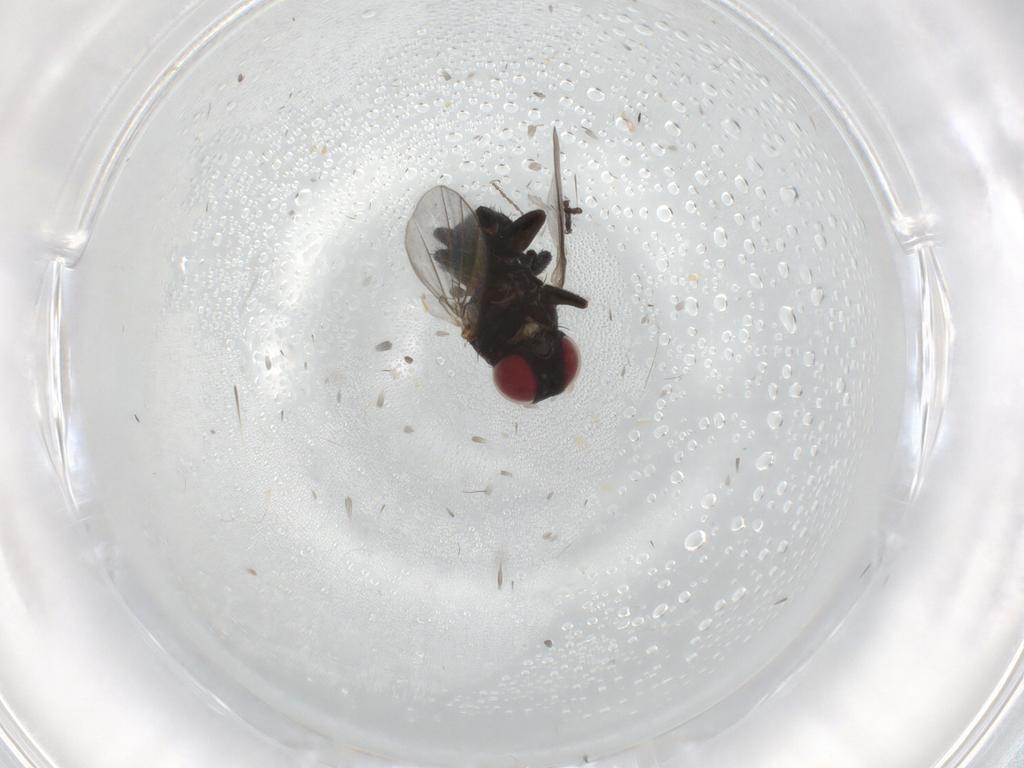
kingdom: Animalia
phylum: Arthropoda
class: Insecta
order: Diptera
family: Agromyzidae
